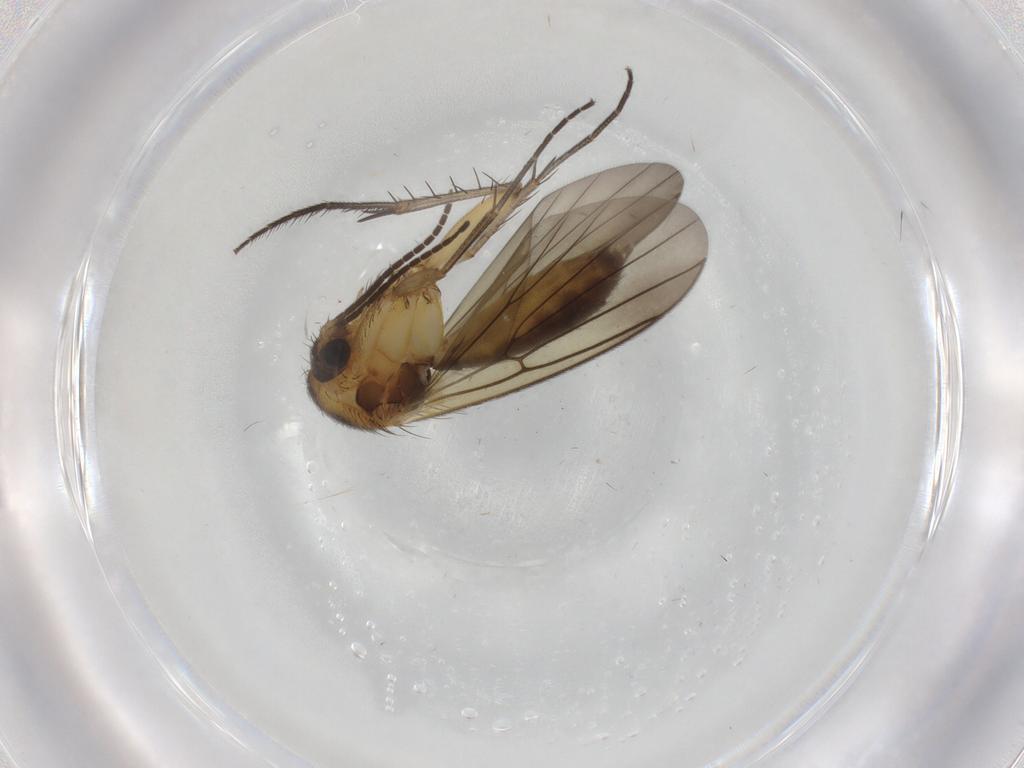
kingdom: Animalia
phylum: Arthropoda
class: Insecta
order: Diptera
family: Mycetophilidae
